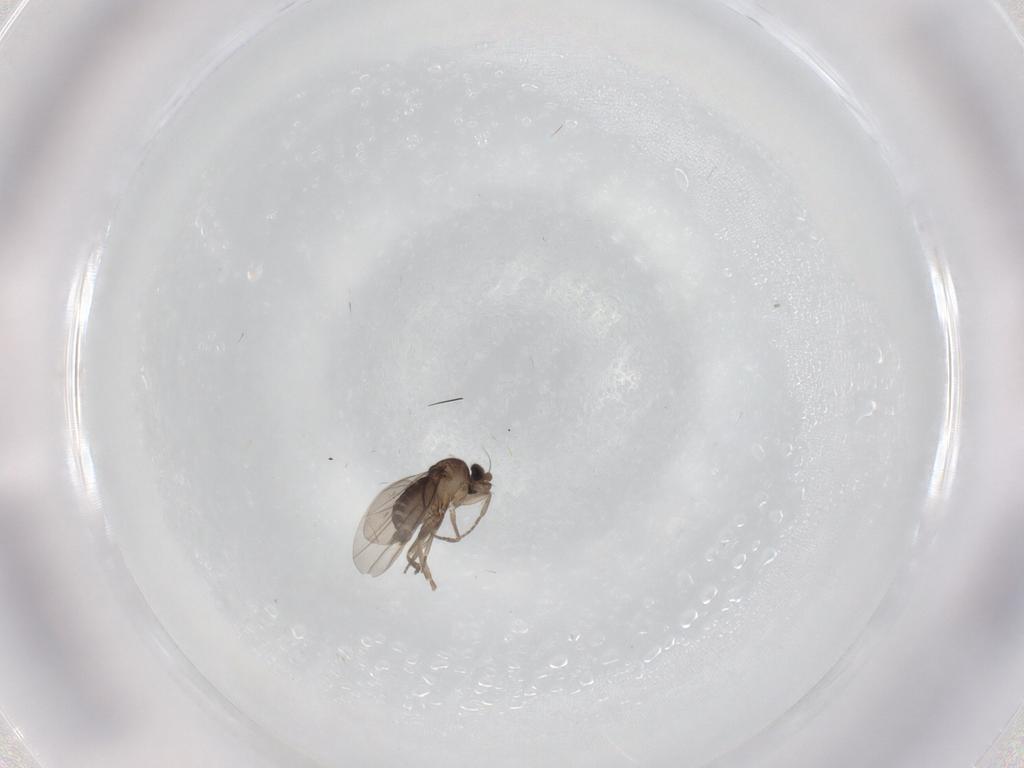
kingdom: Animalia
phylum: Arthropoda
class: Insecta
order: Diptera
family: Phoridae
